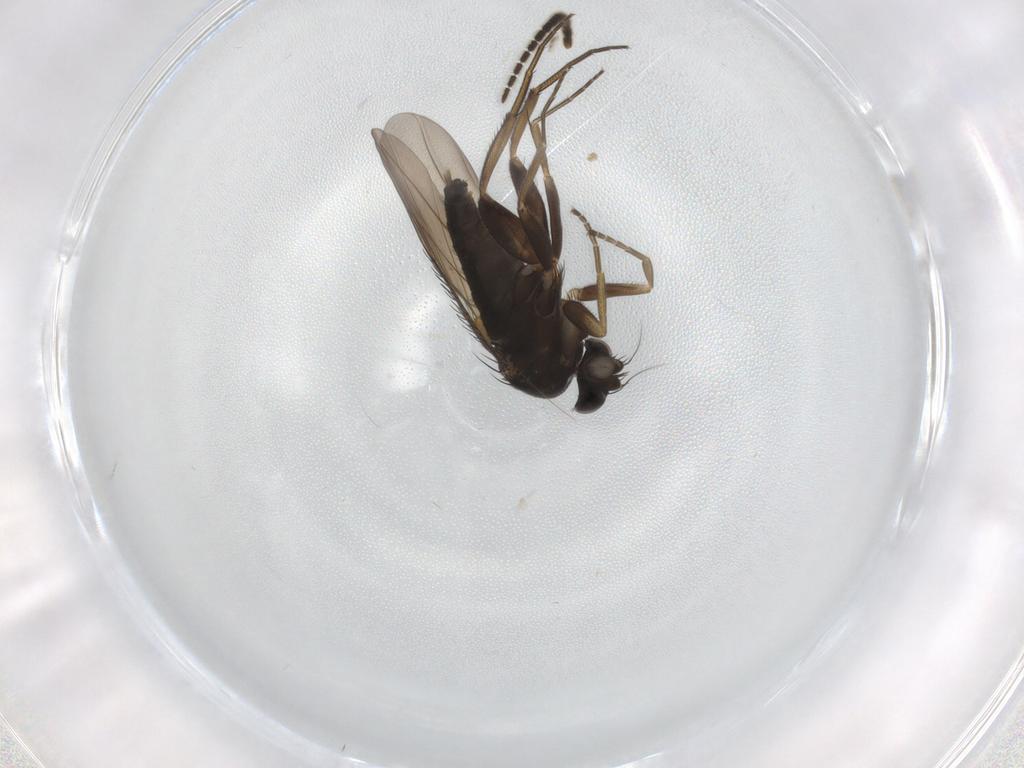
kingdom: Animalia
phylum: Arthropoda
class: Insecta
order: Diptera
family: Phoridae
